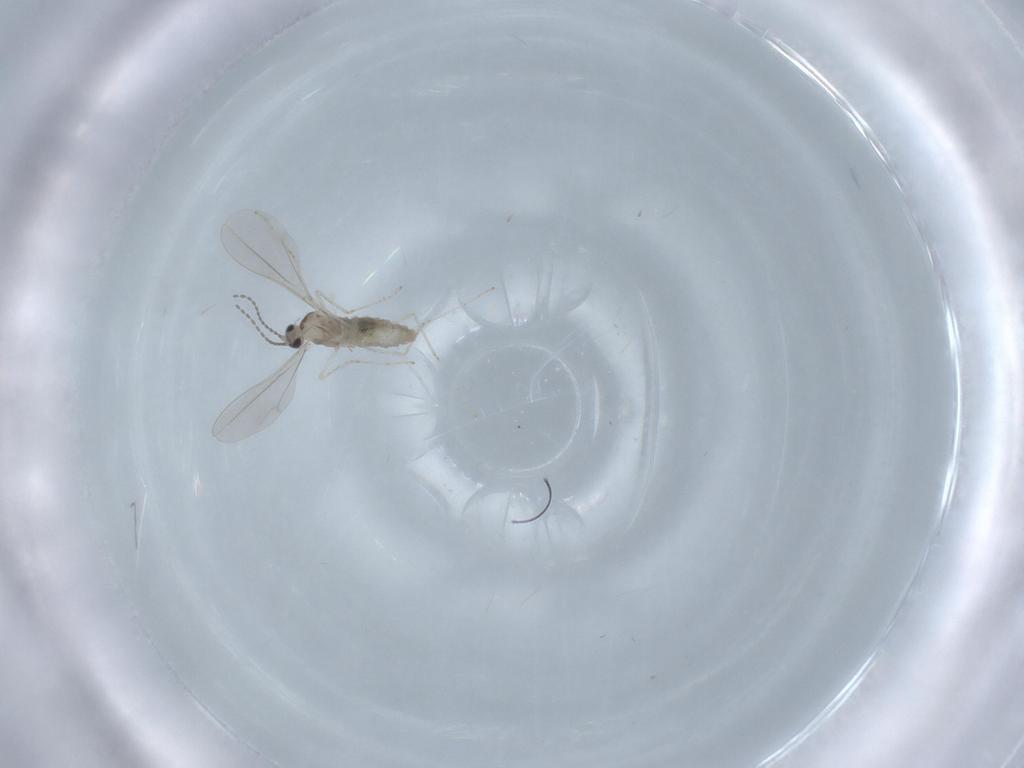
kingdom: Animalia
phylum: Arthropoda
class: Insecta
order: Diptera
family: Cecidomyiidae
